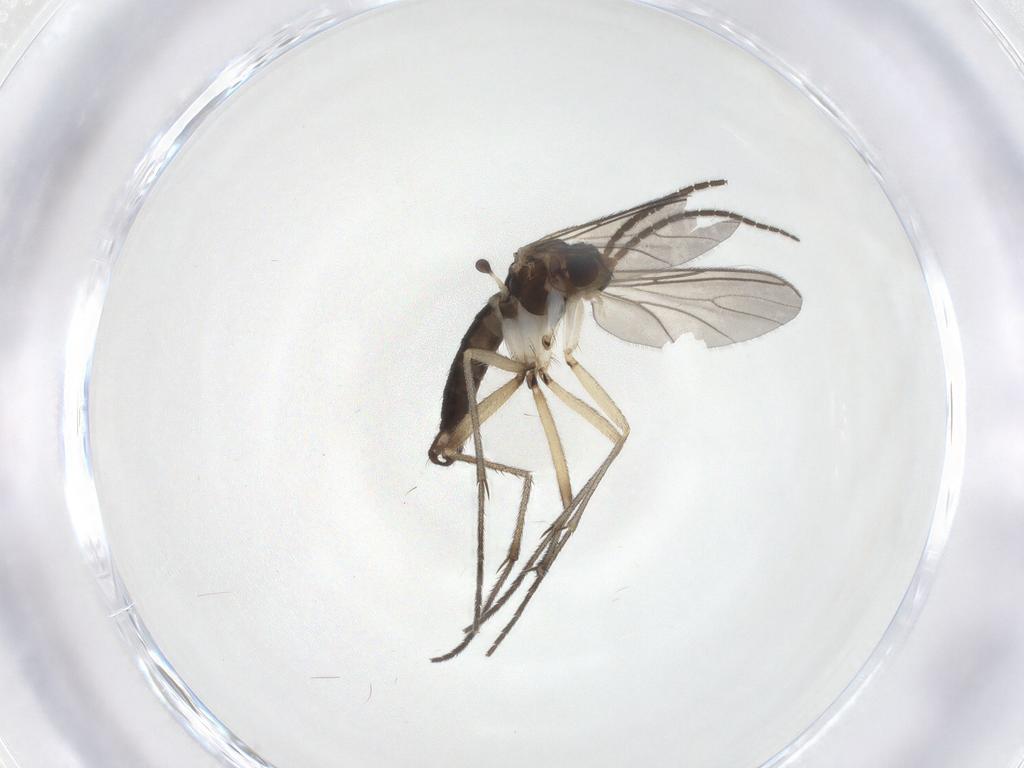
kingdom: Animalia
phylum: Arthropoda
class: Insecta
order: Diptera
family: Sciaridae
